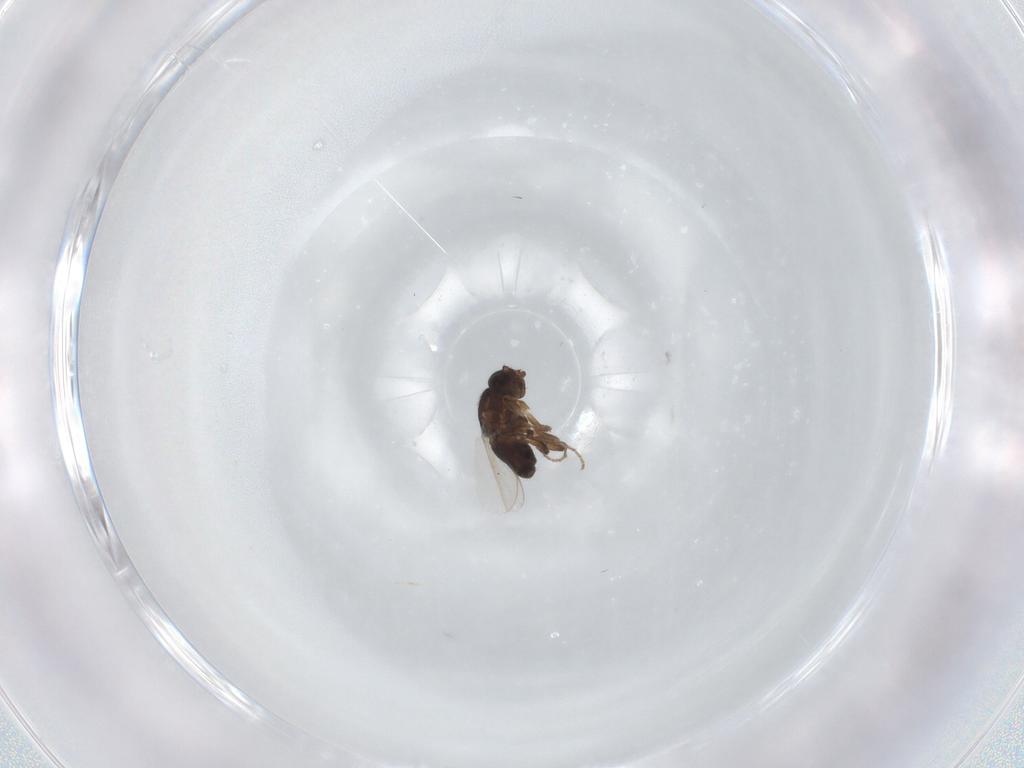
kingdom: Animalia
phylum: Arthropoda
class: Insecta
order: Diptera
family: Sphaeroceridae
